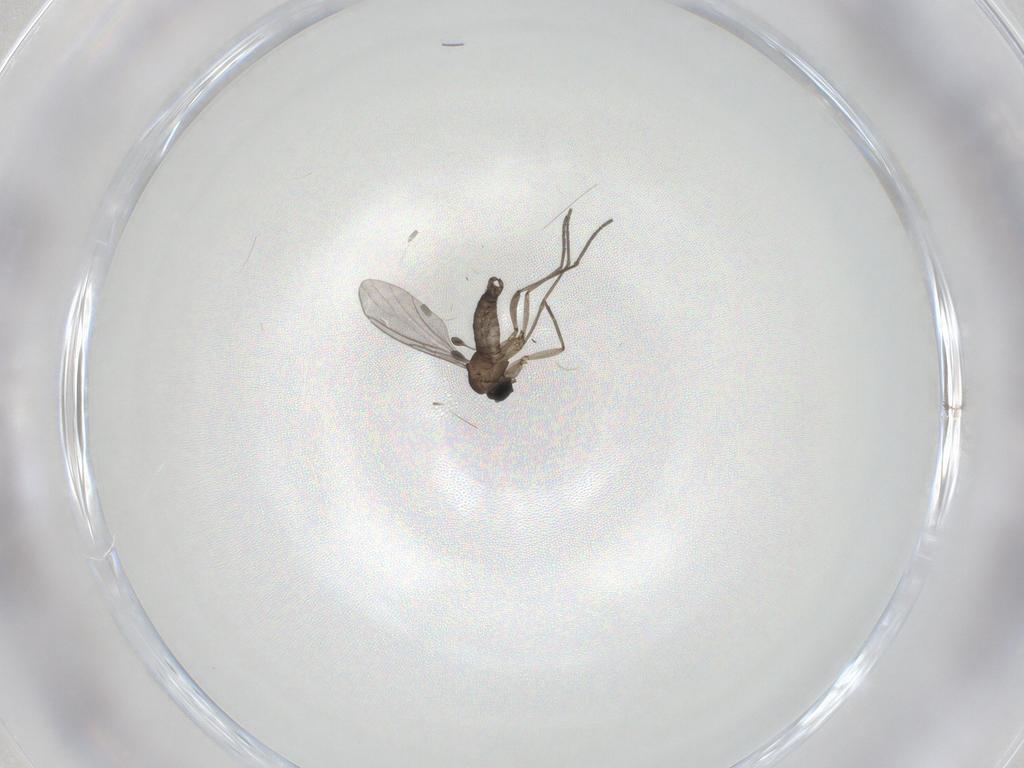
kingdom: Animalia
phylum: Arthropoda
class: Insecta
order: Diptera
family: Sciaridae
